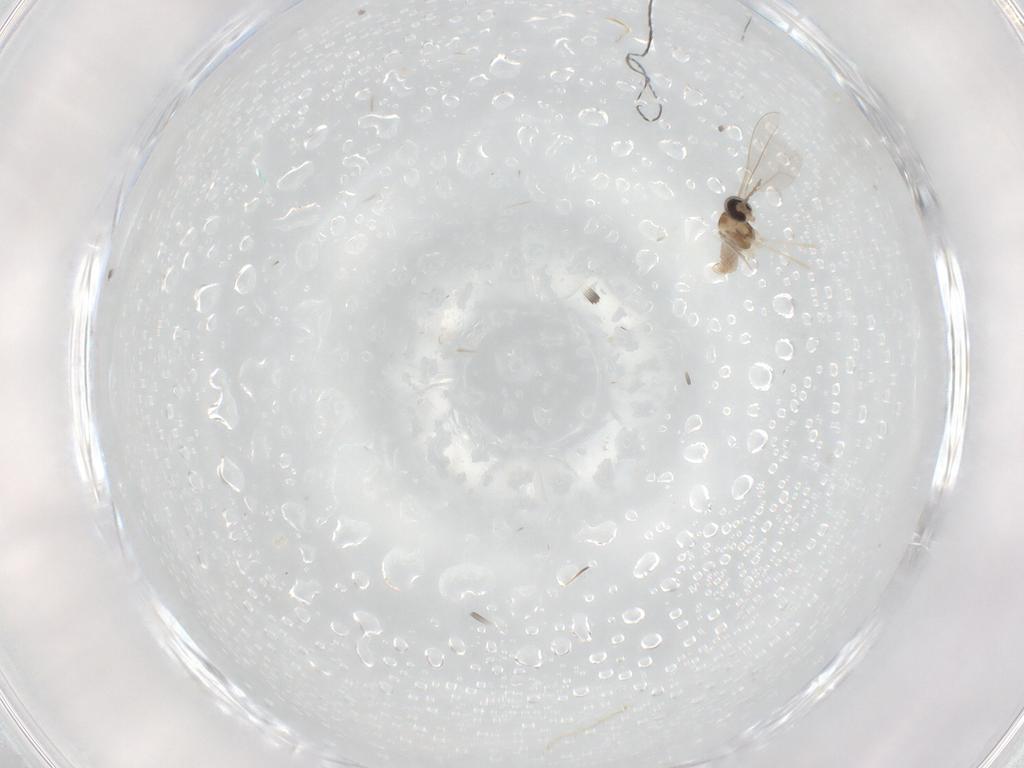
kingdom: Animalia
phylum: Arthropoda
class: Insecta
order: Diptera
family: Cecidomyiidae
